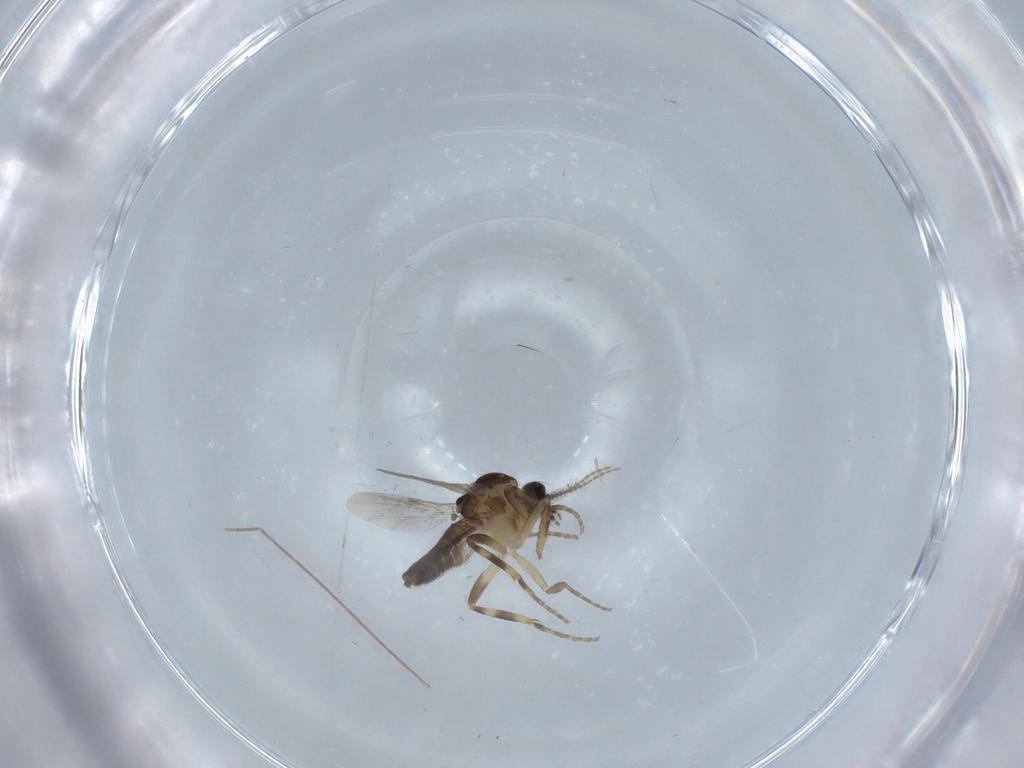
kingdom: Animalia
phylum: Arthropoda
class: Insecta
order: Diptera
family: Ceratopogonidae
